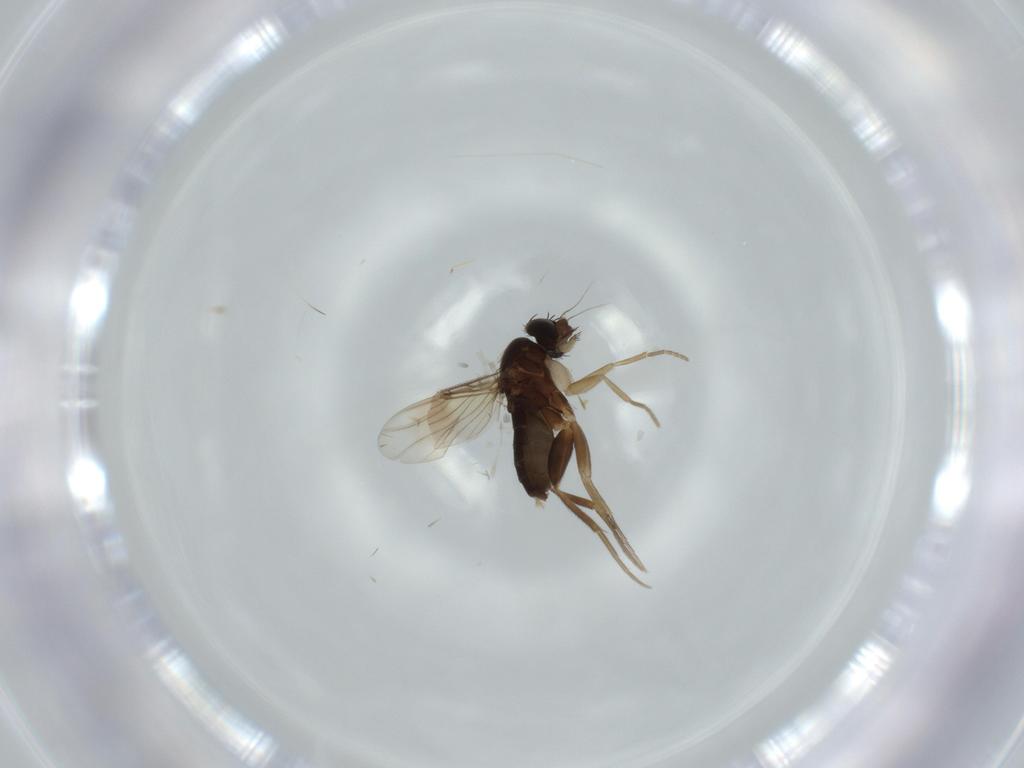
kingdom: Animalia
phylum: Arthropoda
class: Insecta
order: Diptera
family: Phoridae
